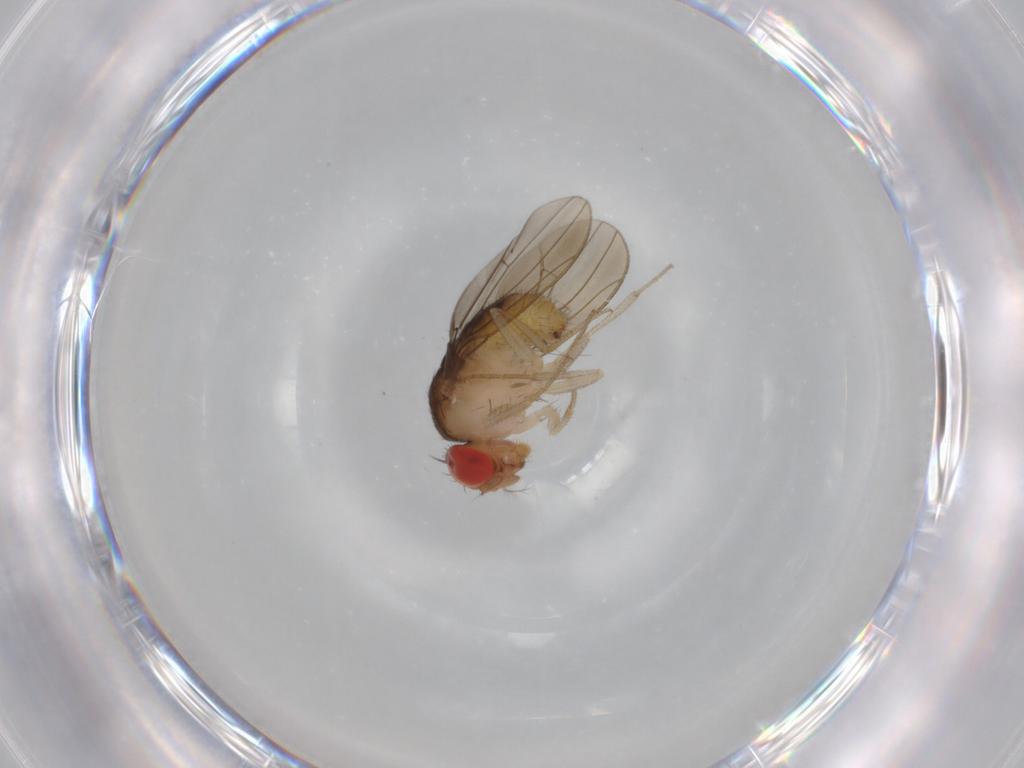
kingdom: Animalia
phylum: Arthropoda
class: Insecta
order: Diptera
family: Drosophilidae
